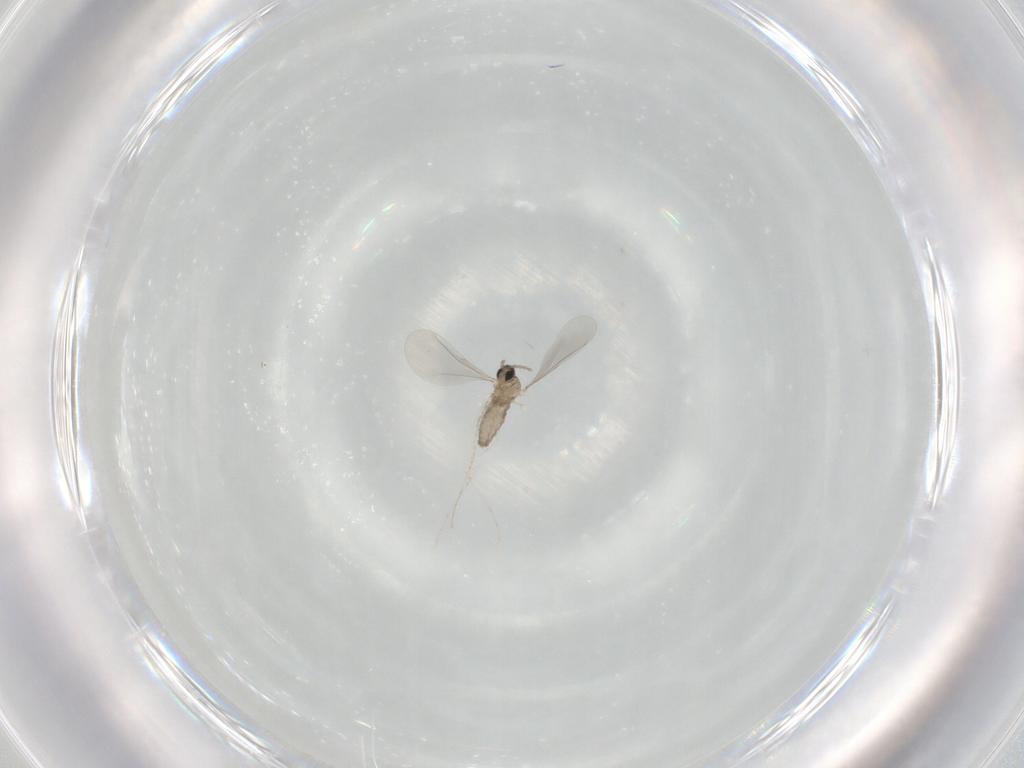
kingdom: Animalia
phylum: Arthropoda
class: Insecta
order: Diptera
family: Cecidomyiidae
